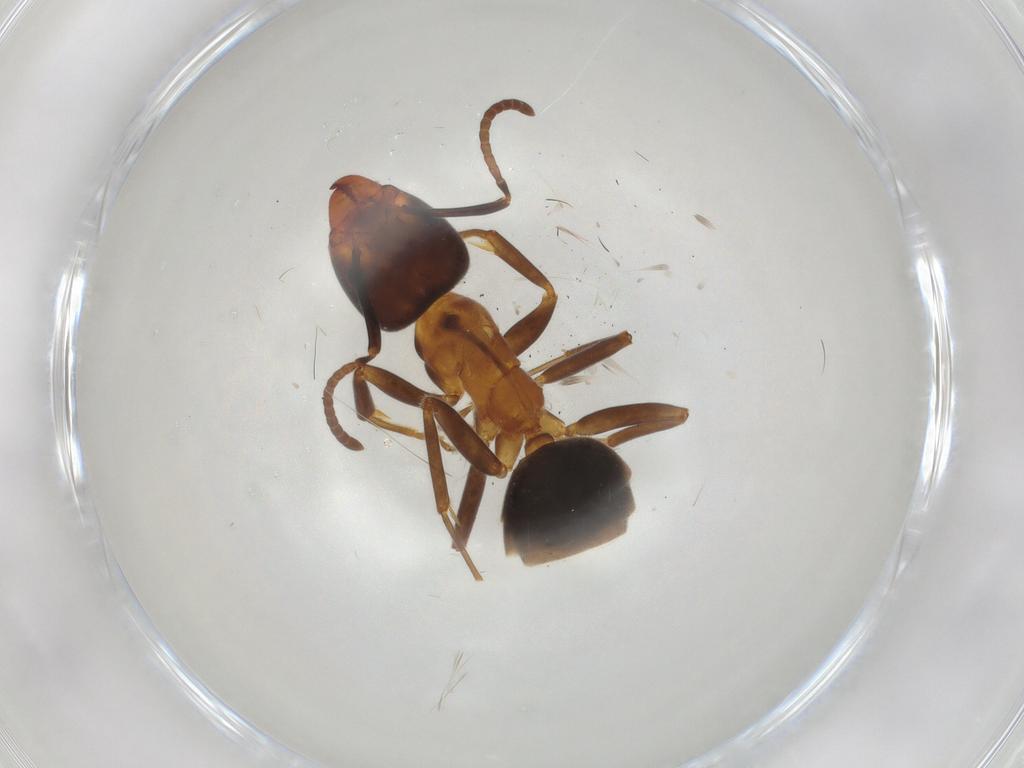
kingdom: Animalia
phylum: Arthropoda
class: Insecta
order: Hymenoptera
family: Formicidae
